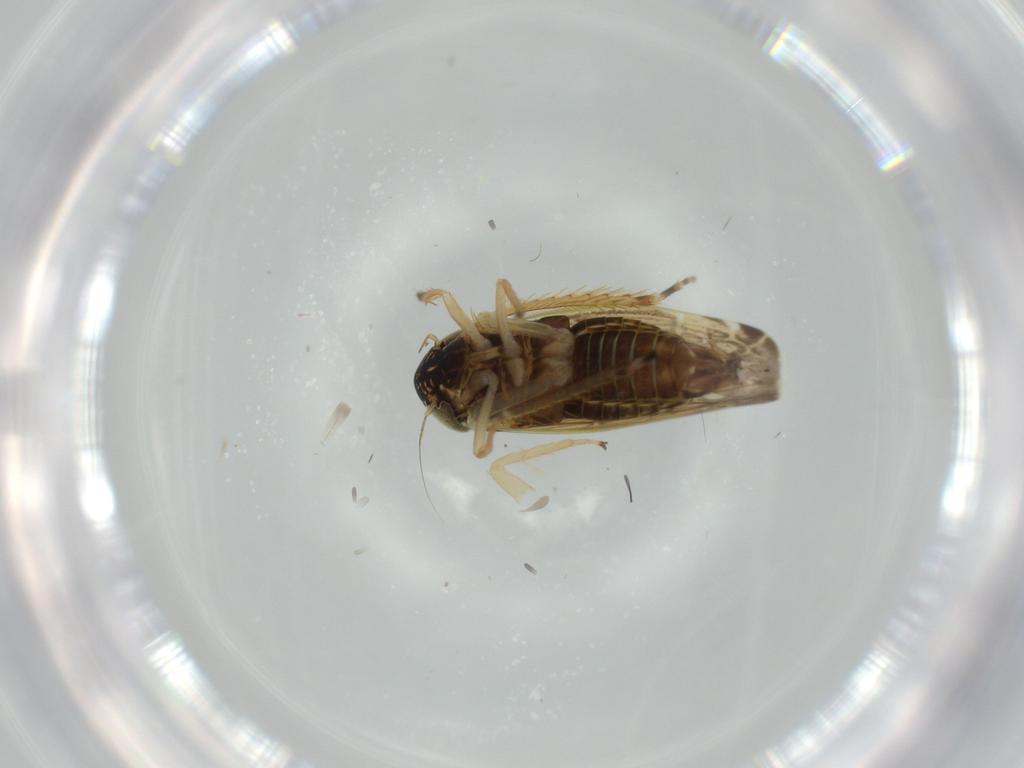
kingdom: Animalia
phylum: Arthropoda
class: Insecta
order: Hemiptera
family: Cicadellidae
